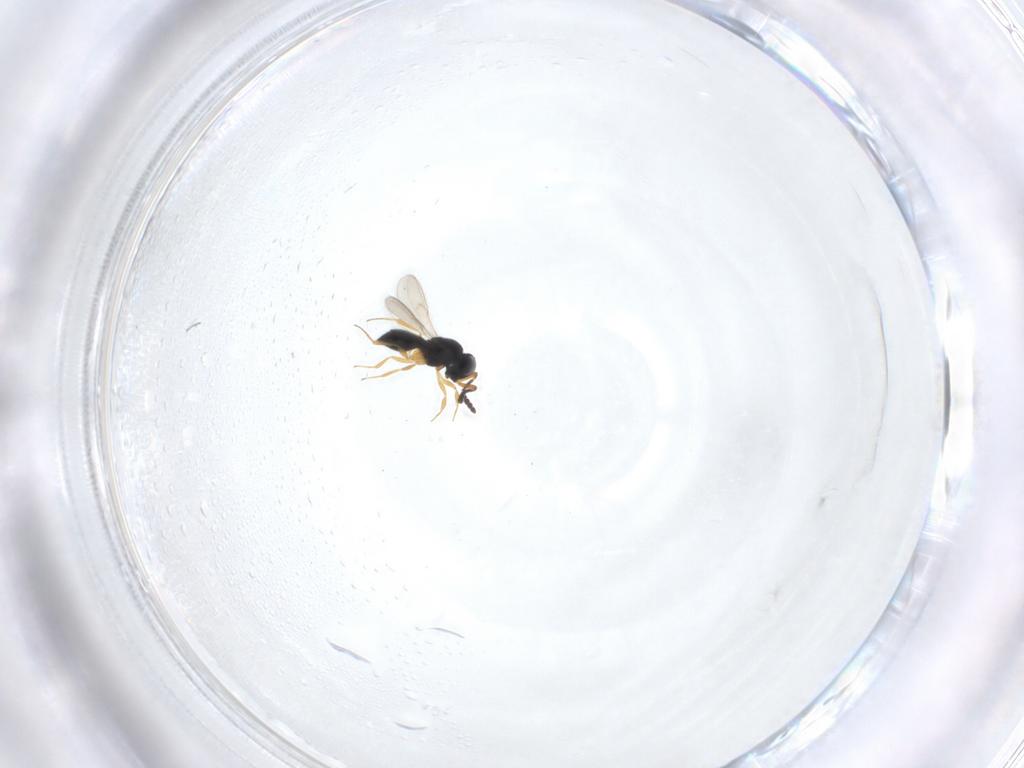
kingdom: Animalia
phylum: Arthropoda
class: Insecta
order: Hymenoptera
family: Scelionidae
